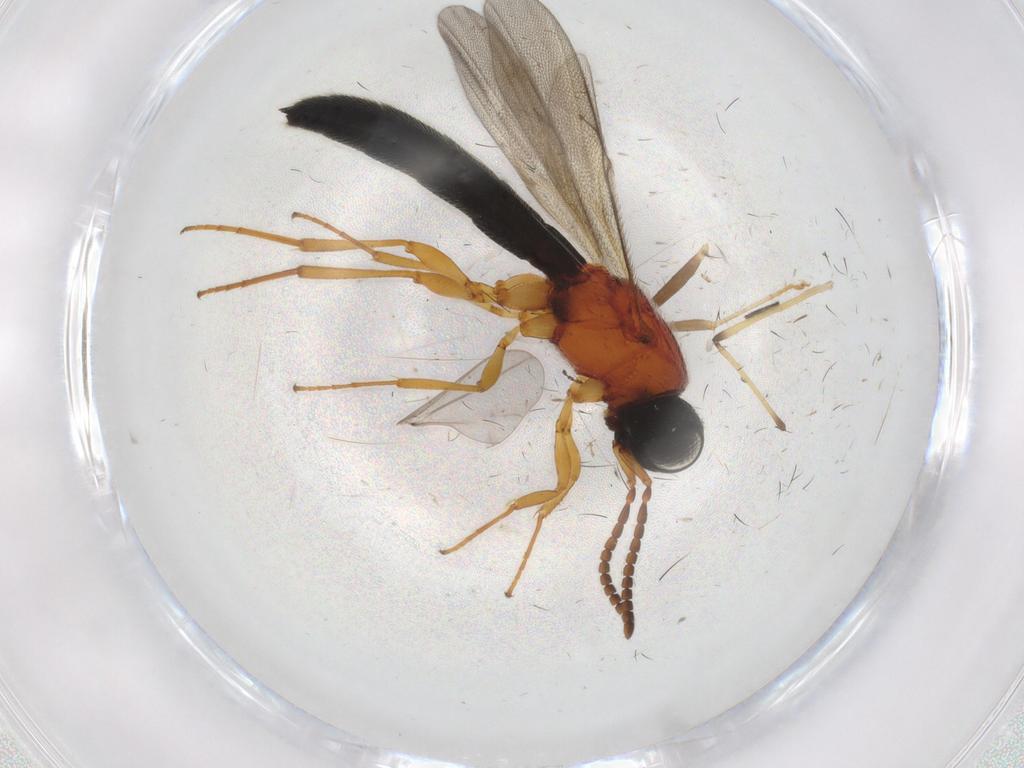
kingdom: Animalia
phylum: Arthropoda
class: Insecta
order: Hymenoptera
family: Scelionidae
